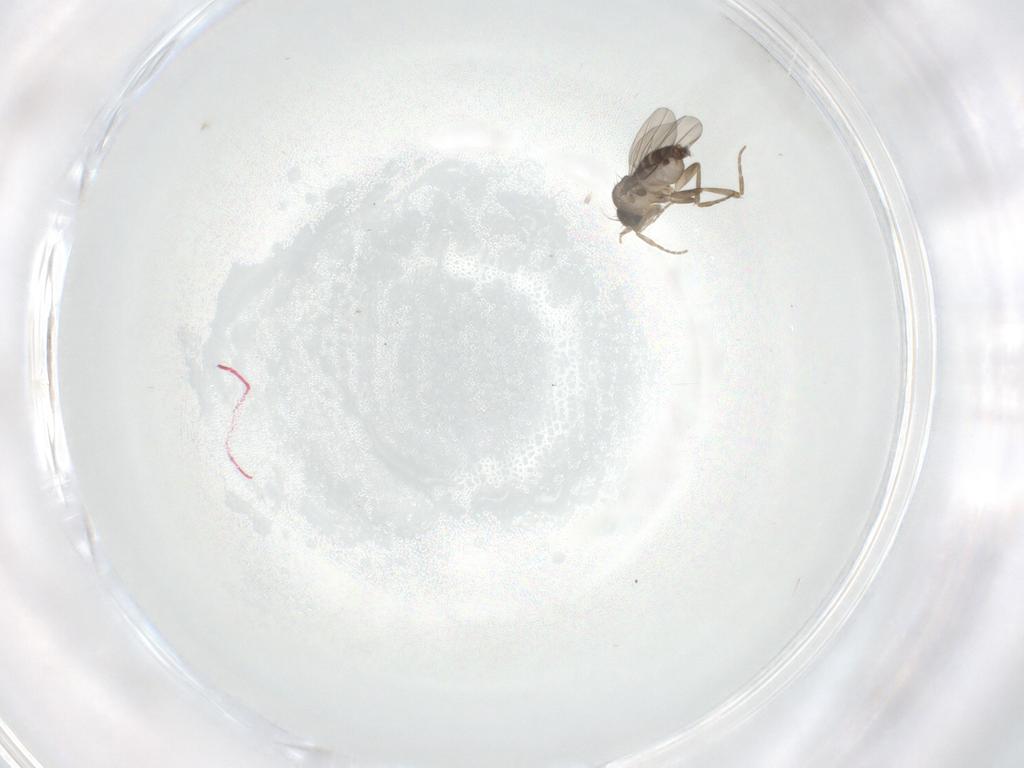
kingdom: Animalia
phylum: Arthropoda
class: Insecta
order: Diptera
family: Phoridae
